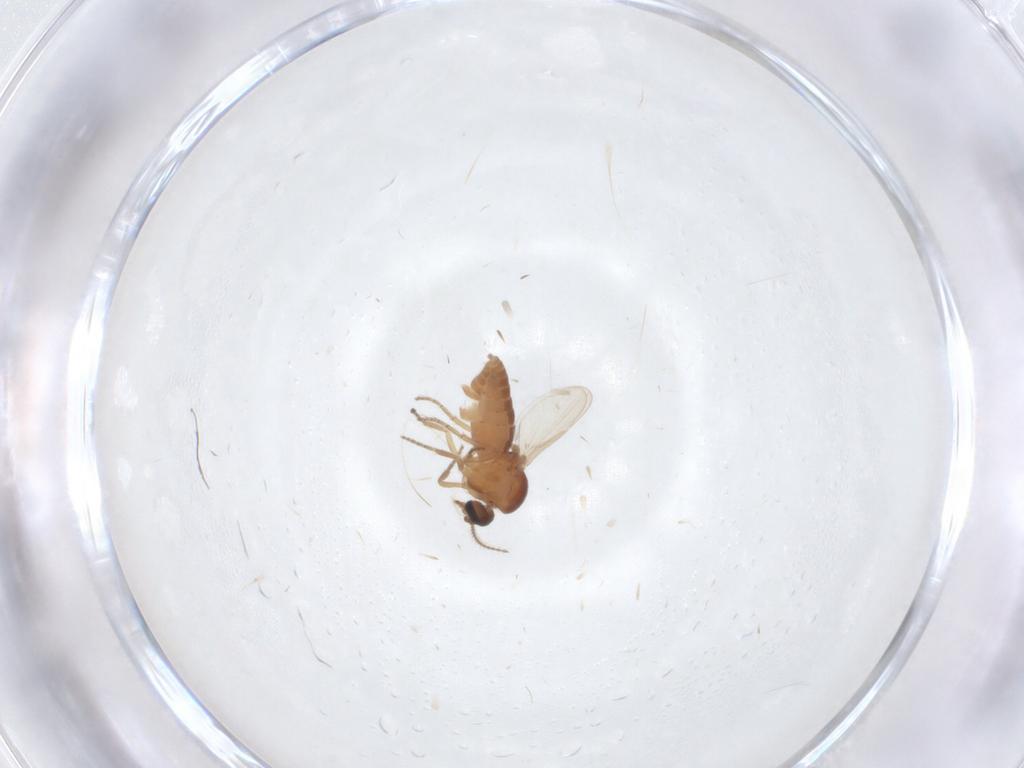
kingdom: Animalia
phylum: Arthropoda
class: Insecta
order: Diptera
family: Ceratopogonidae
